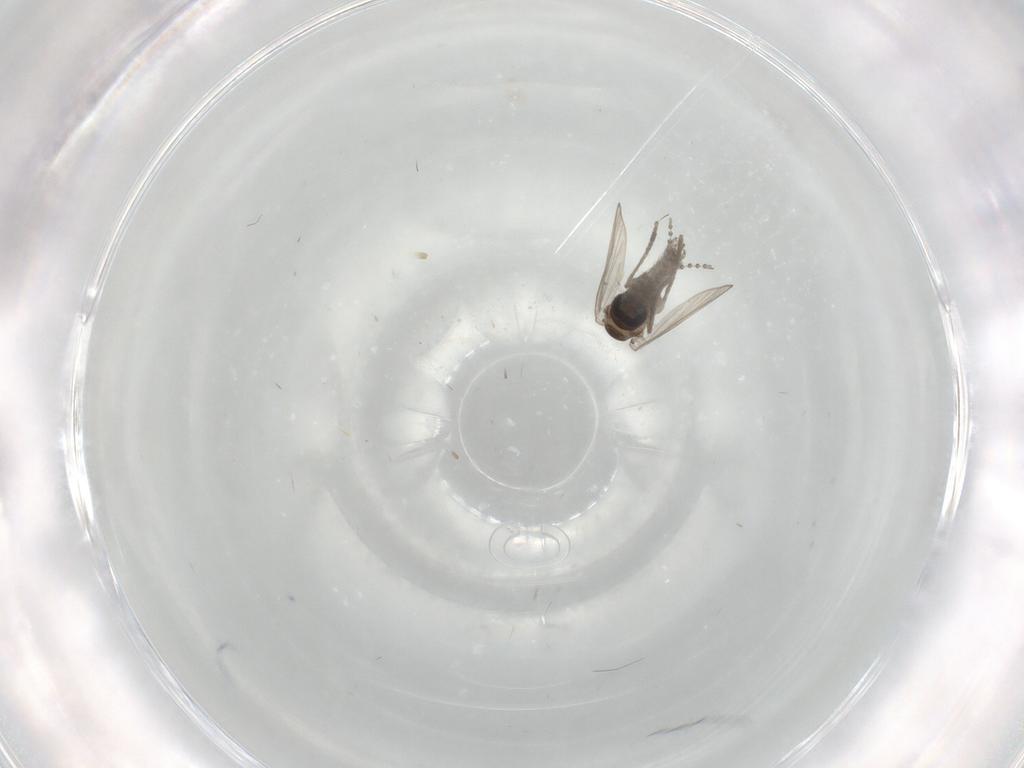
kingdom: Animalia
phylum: Arthropoda
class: Insecta
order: Diptera
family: Psychodidae
